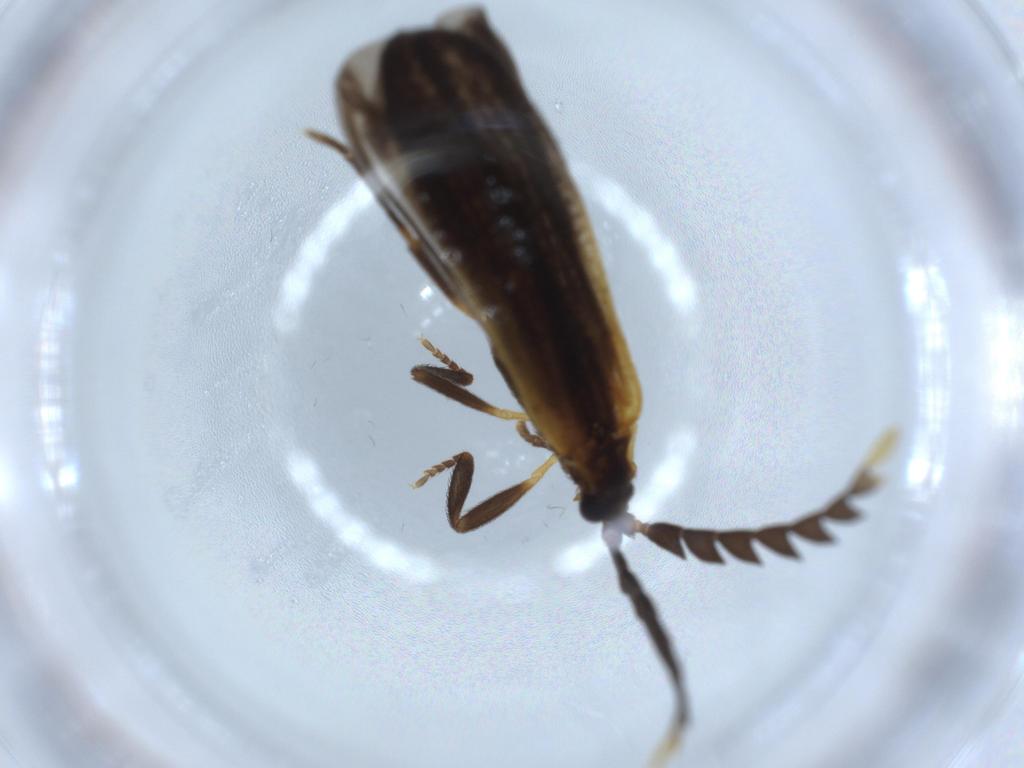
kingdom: Animalia
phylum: Arthropoda
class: Insecta
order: Coleoptera
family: Lycidae
